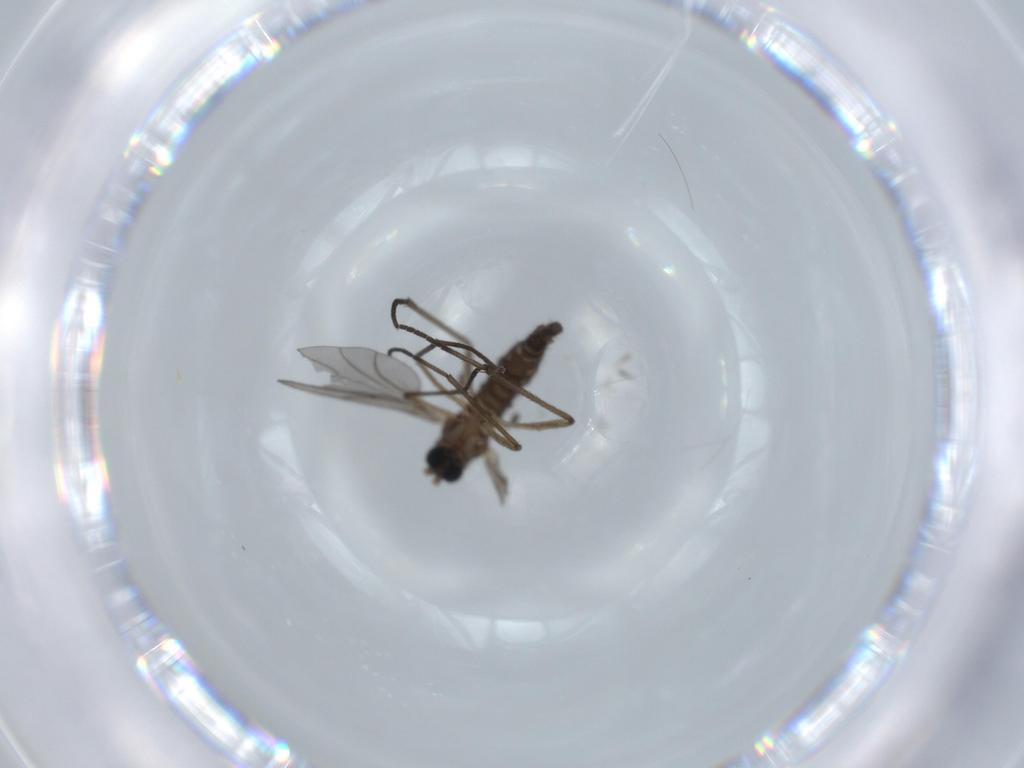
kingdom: Animalia
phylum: Arthropoda
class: Insecta
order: Diptera
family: Sciaridae
